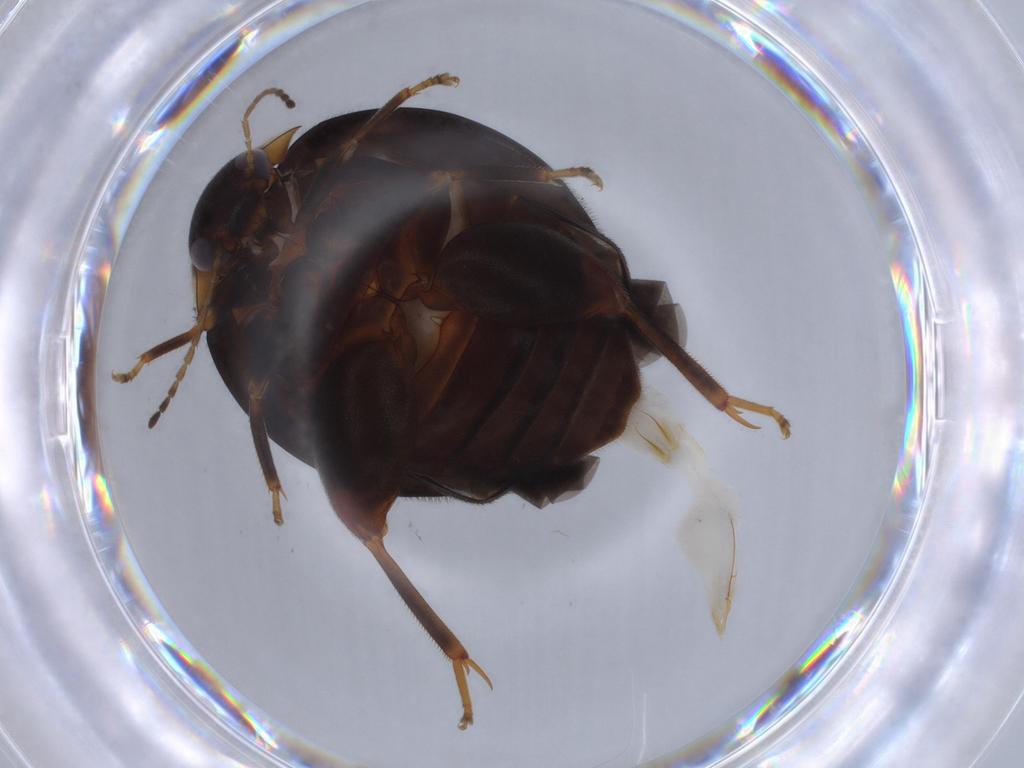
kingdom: Animalia
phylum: Arthropoda
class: Insecta
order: Coleoptera
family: Scirtidae
